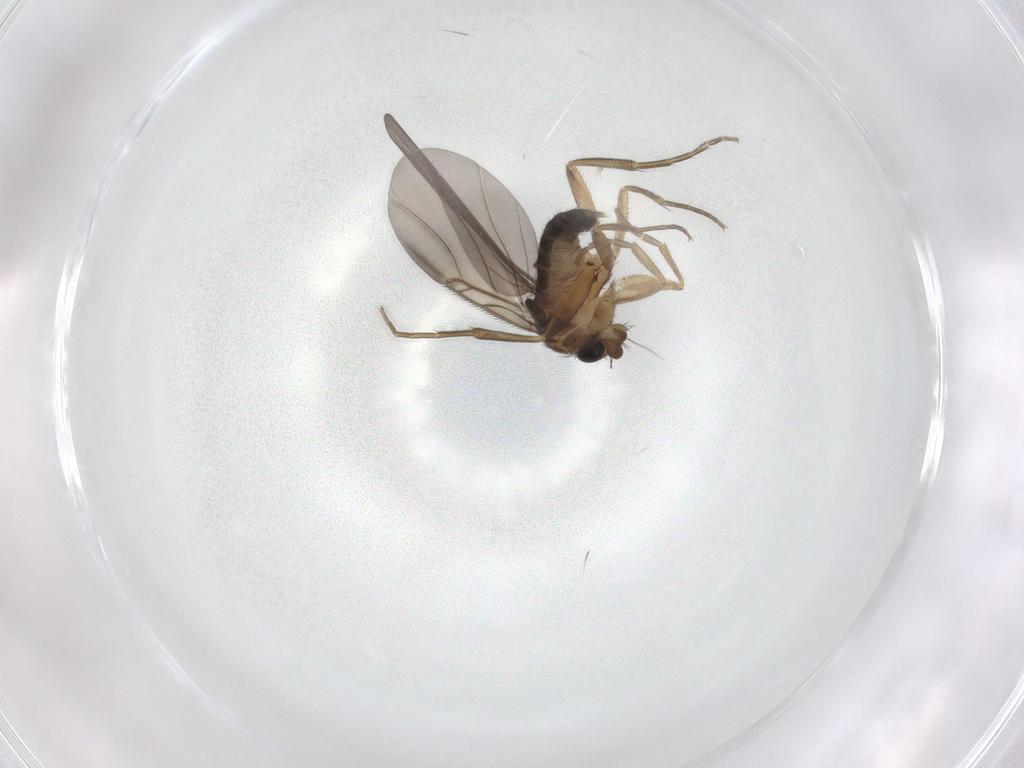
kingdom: Animalia
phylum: Arthropoda
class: Insecta
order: Diptera
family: Phoridae
